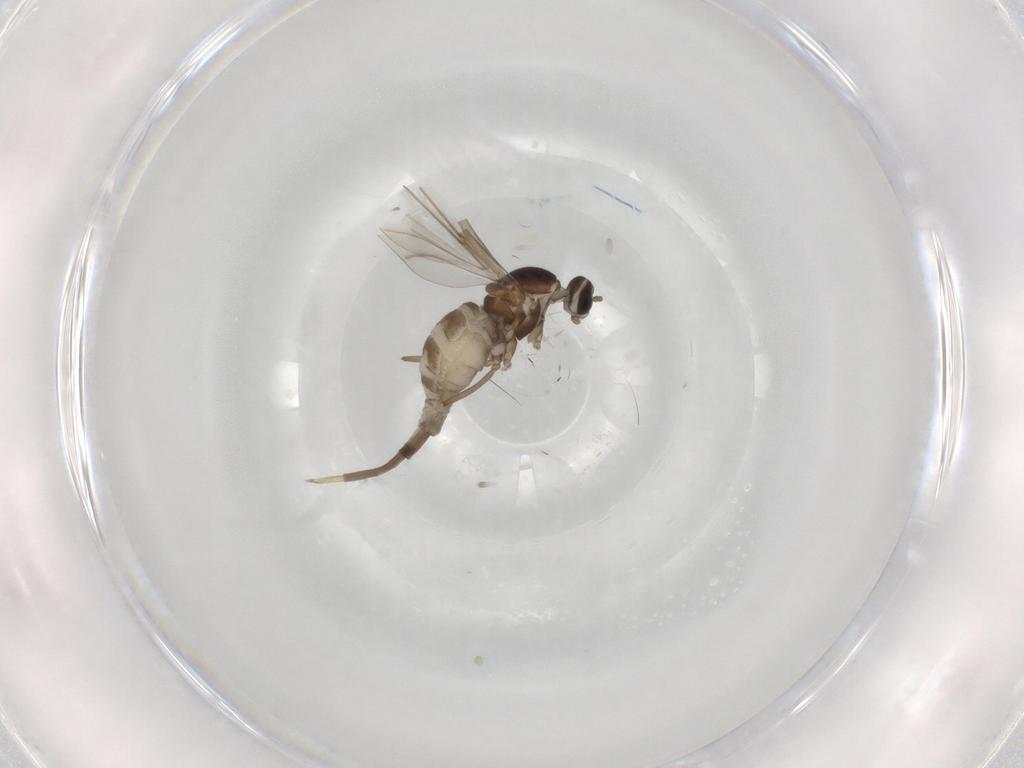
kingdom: Animalia
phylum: Arthropoda
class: Insecta
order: Diptera
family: Cecidomyiidae
